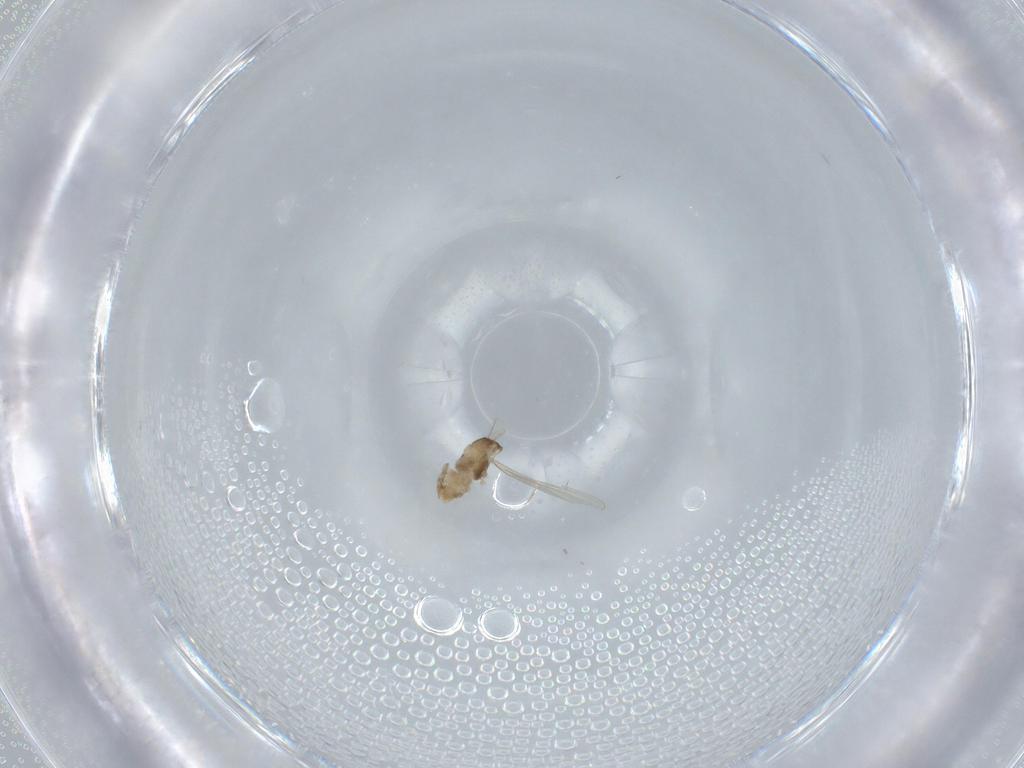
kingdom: Animalia
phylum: Arthropoda
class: Insecta
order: Diptera
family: Cecidomyiidae
